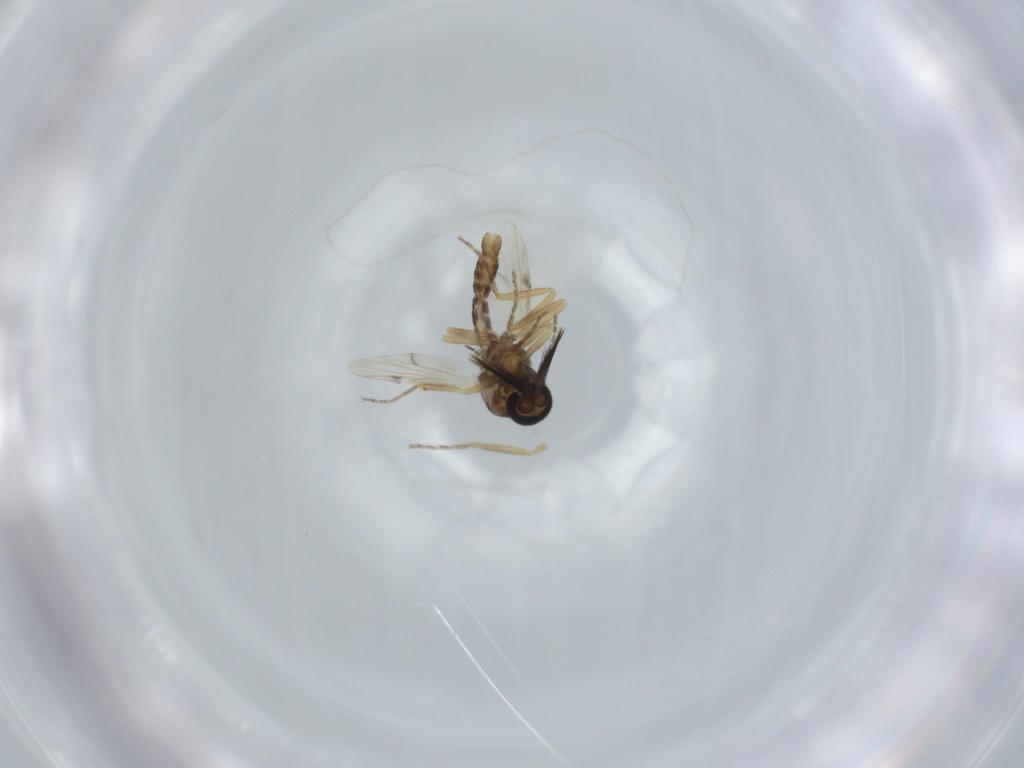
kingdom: Animalia
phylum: Arthropoda
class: Insecta
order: Diptera
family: Ceratopogonidae
